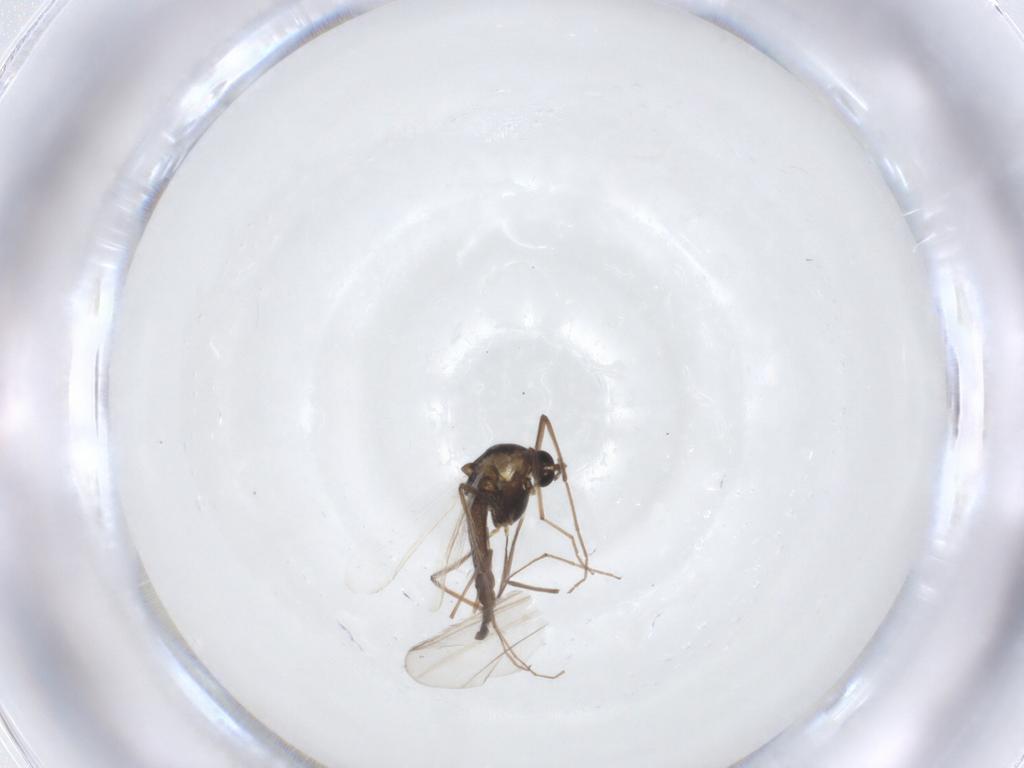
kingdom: Animalia
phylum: Arthropoda
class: Insecta
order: Diptera
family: Chironomidae
